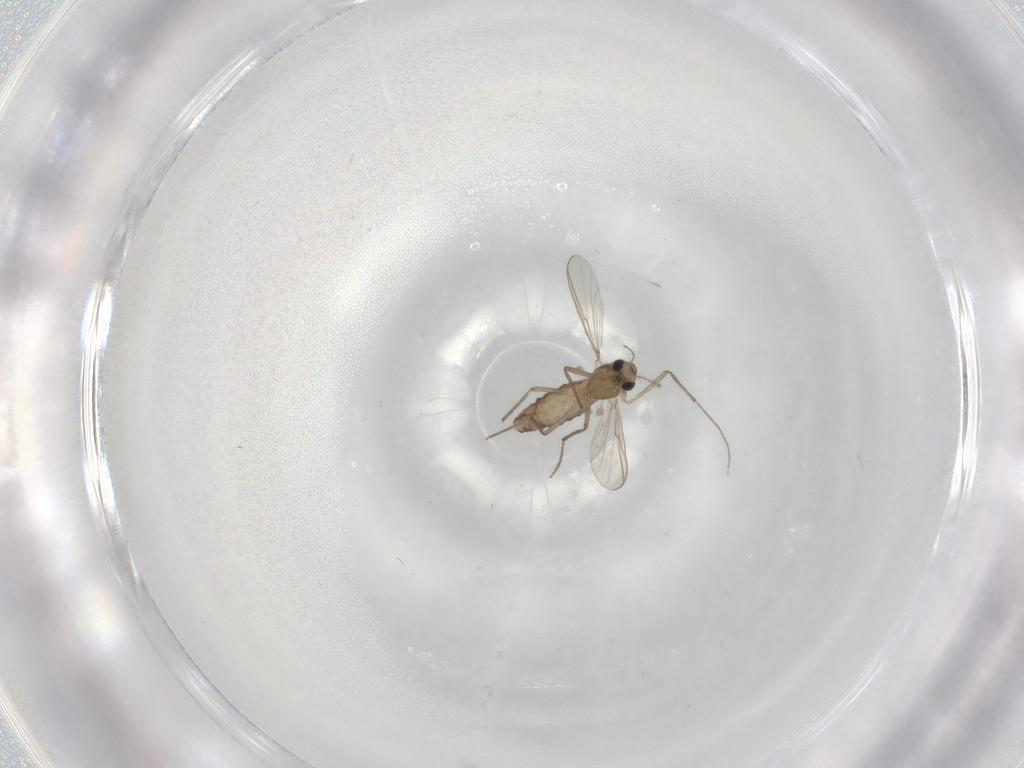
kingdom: Animalia
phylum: Arthropoda
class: Insecta
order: Diptera
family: Chironomidae
